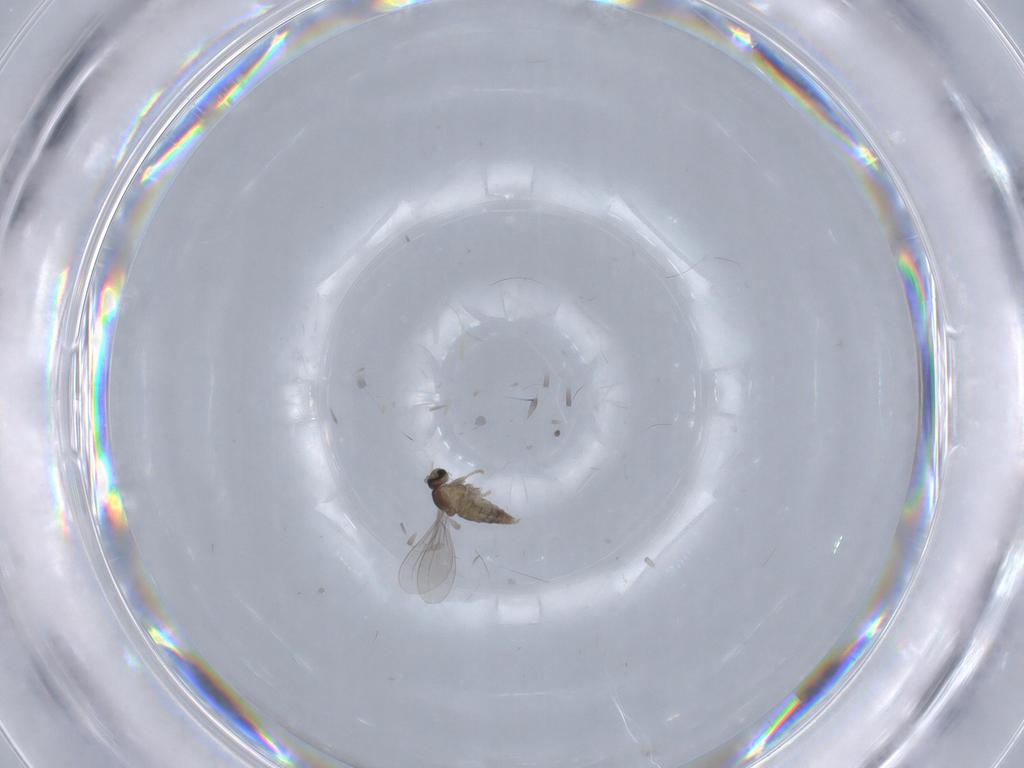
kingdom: Animalia
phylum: Arthropoda
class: Insecta
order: Diptera
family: Cecidomyiidae
